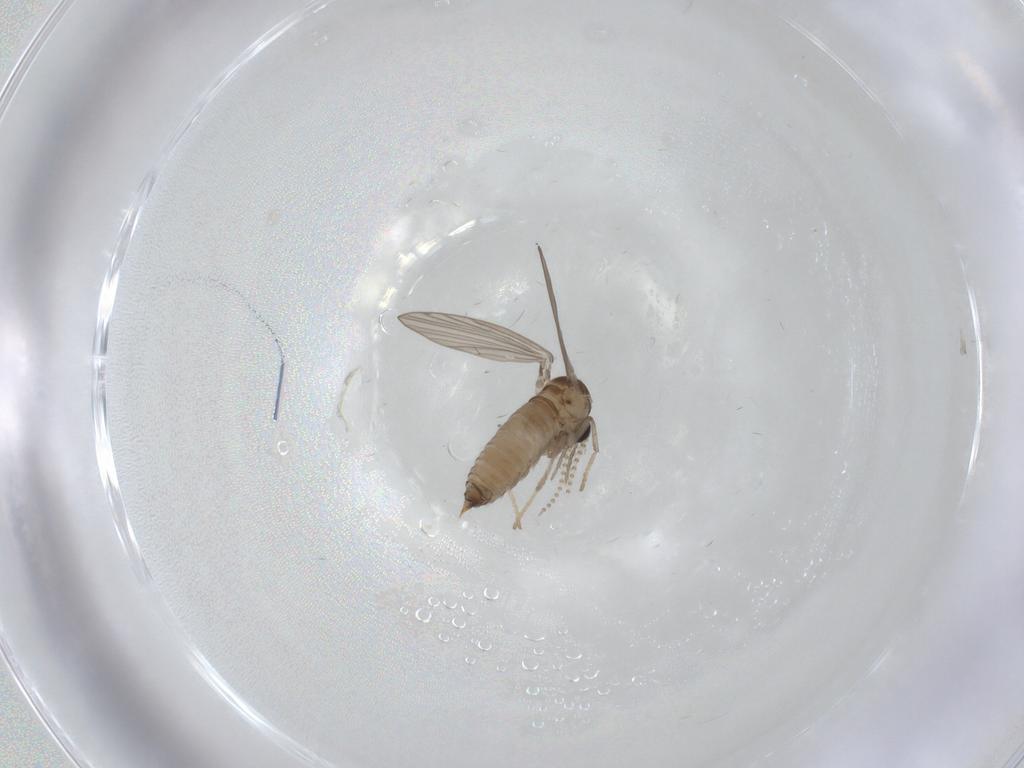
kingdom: Animalia
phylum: Arthropoda
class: Insecta
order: Diptera
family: Psychodidae
